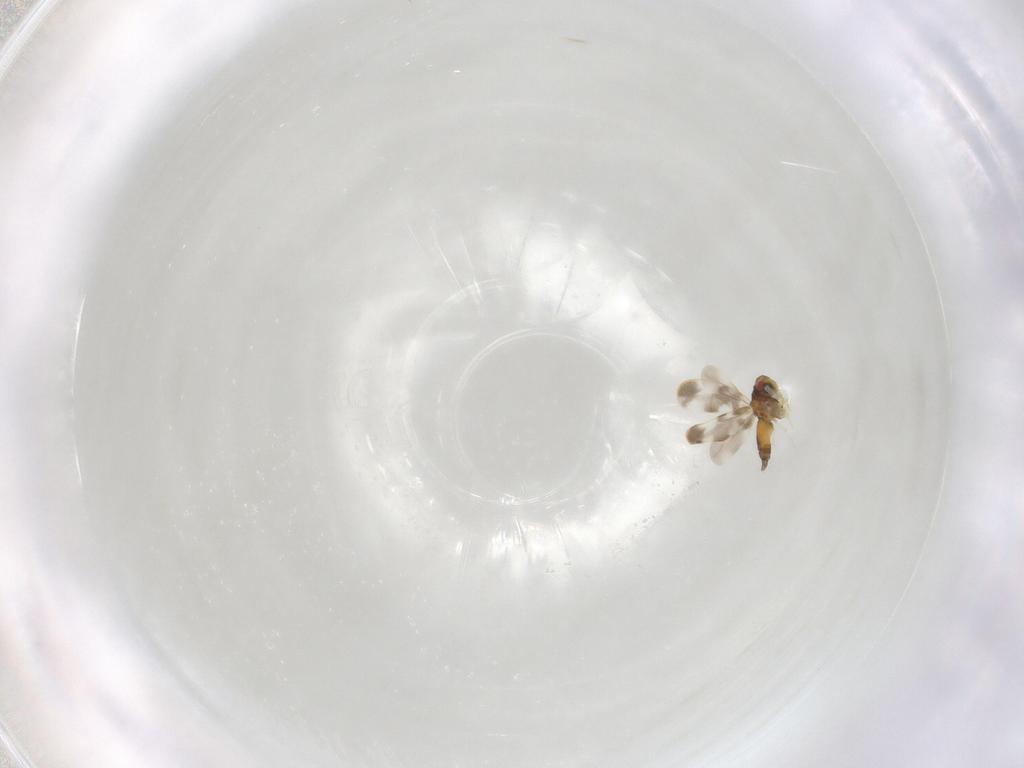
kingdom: Animalia
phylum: Arthropoda
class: Insecta
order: Hemiptera
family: Aleyrodidae
